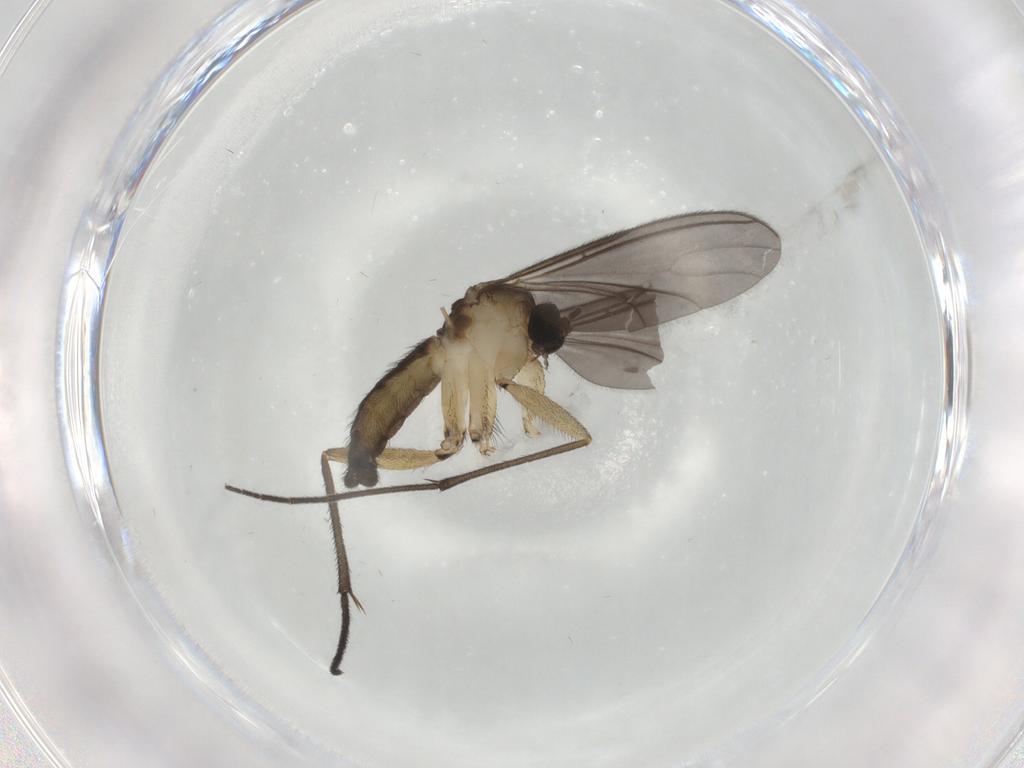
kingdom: Animalia
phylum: Arthropoda
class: Insecta
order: Diptera
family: Sciaridae
